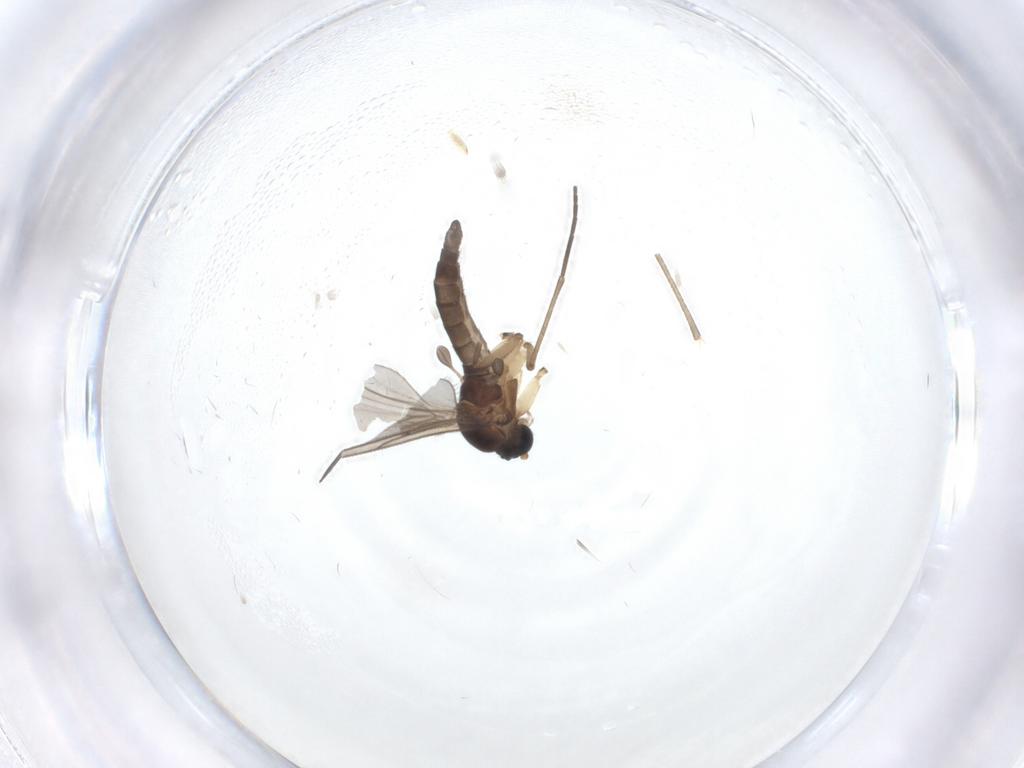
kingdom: Animalia
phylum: Arthropoda
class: Insecta
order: Diptera
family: Sciaridae
